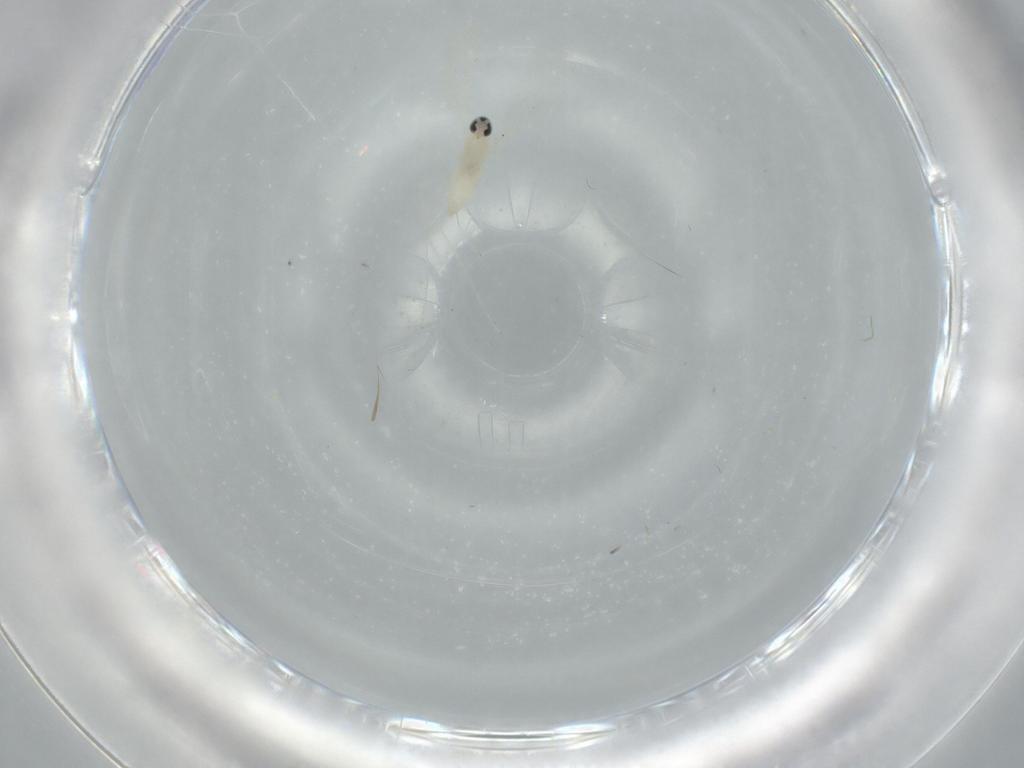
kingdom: Animalia
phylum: Arthropoda
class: Insecta
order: Diptera
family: Cecidomyiidae
